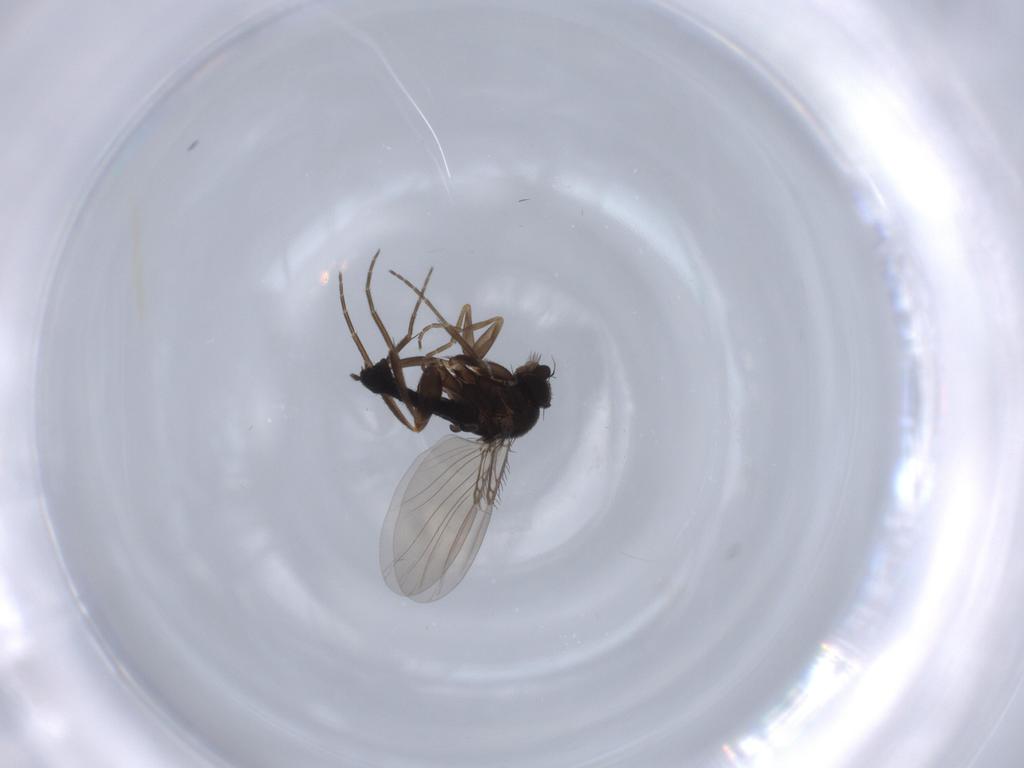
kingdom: Animalia
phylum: Arthropoda
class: Insecta
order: Diptera
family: Phoridae
